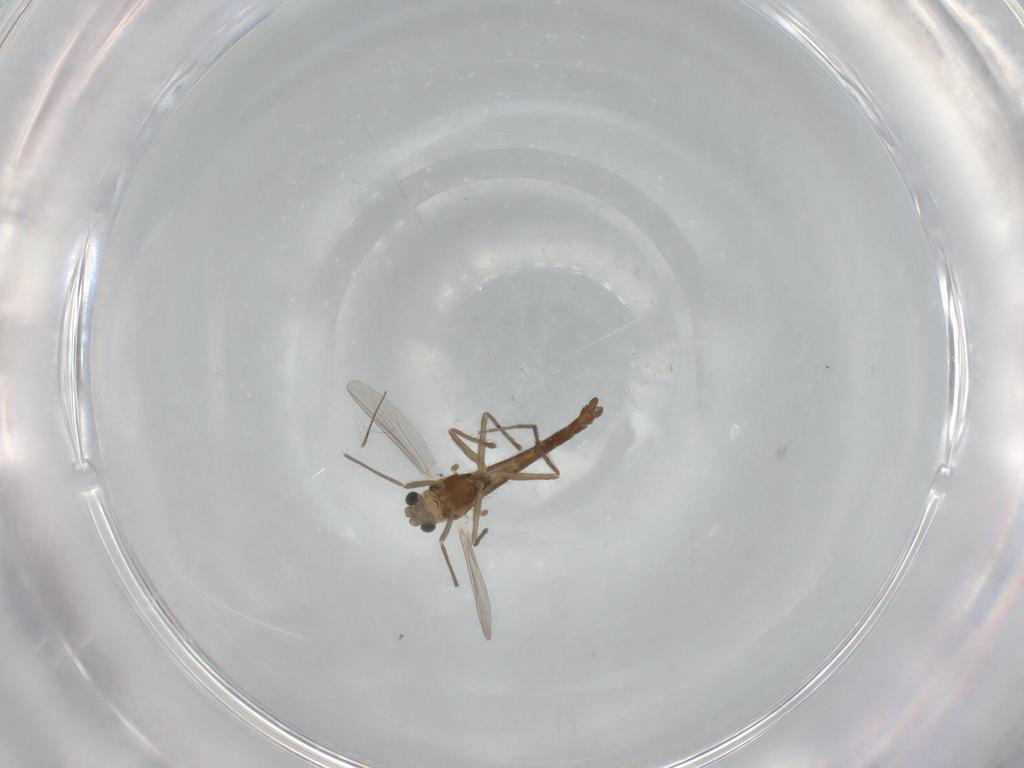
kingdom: Animalia
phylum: Arthropoda
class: Insecta
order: Diptera
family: Chironomidae
